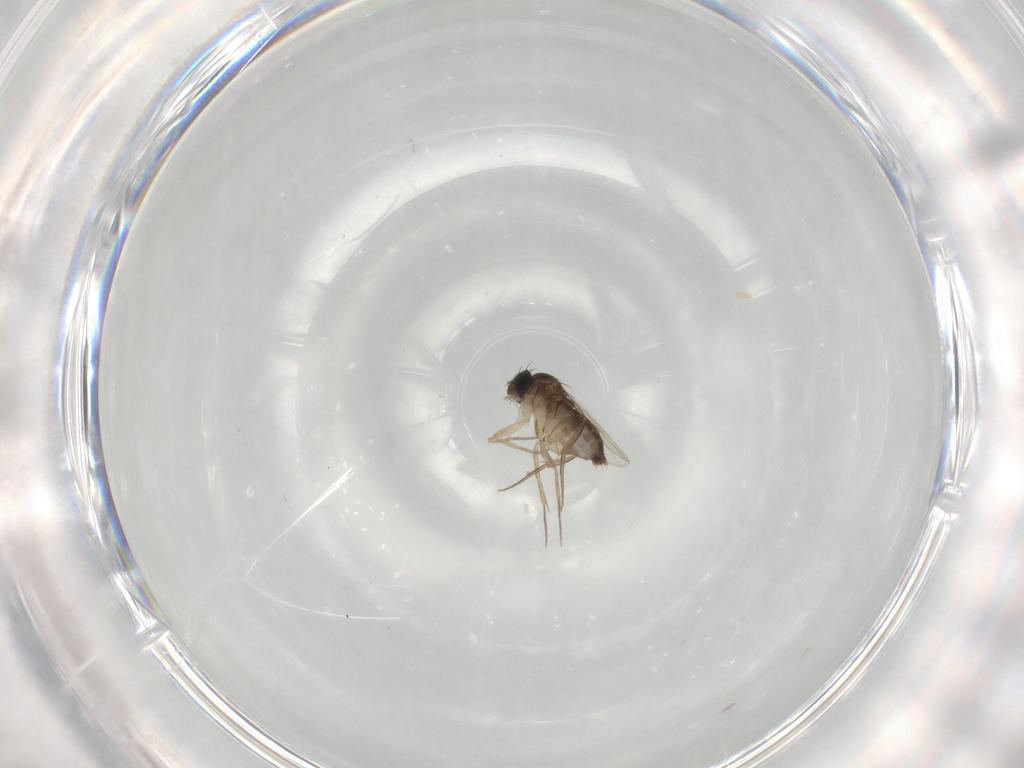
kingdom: Animalia
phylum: Arthropoda
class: Insecta
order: Diptera
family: Phoridae
